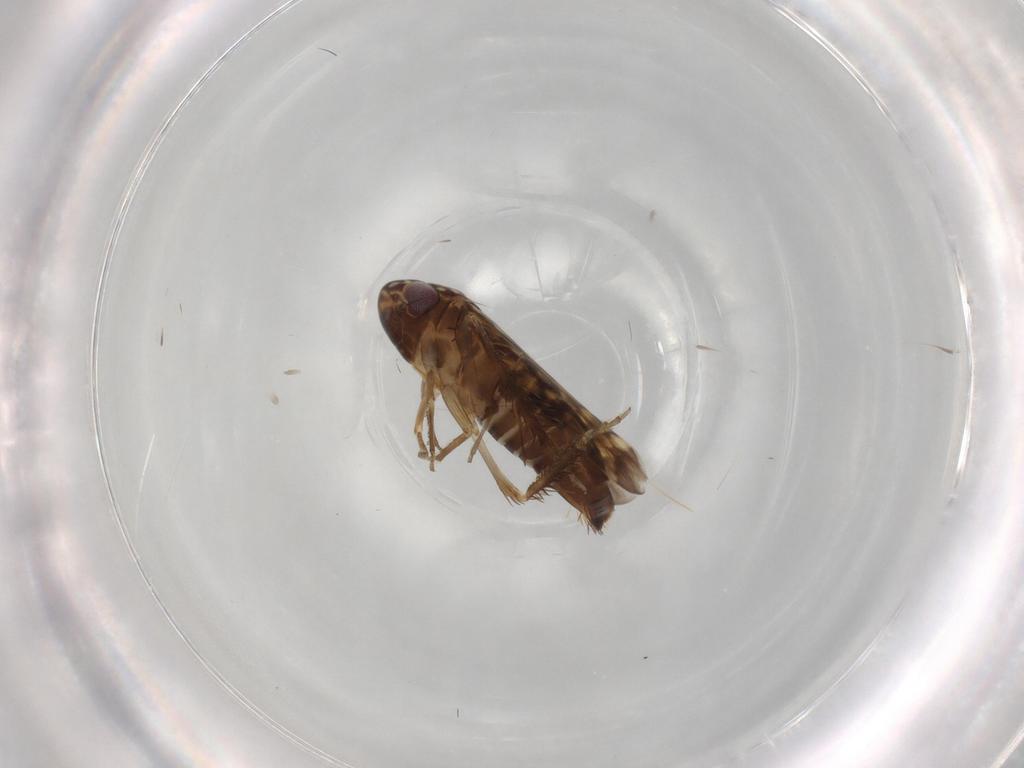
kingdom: Animalia
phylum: Arthropoda
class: Insecta
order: Hemiptera
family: Cicadellidae
